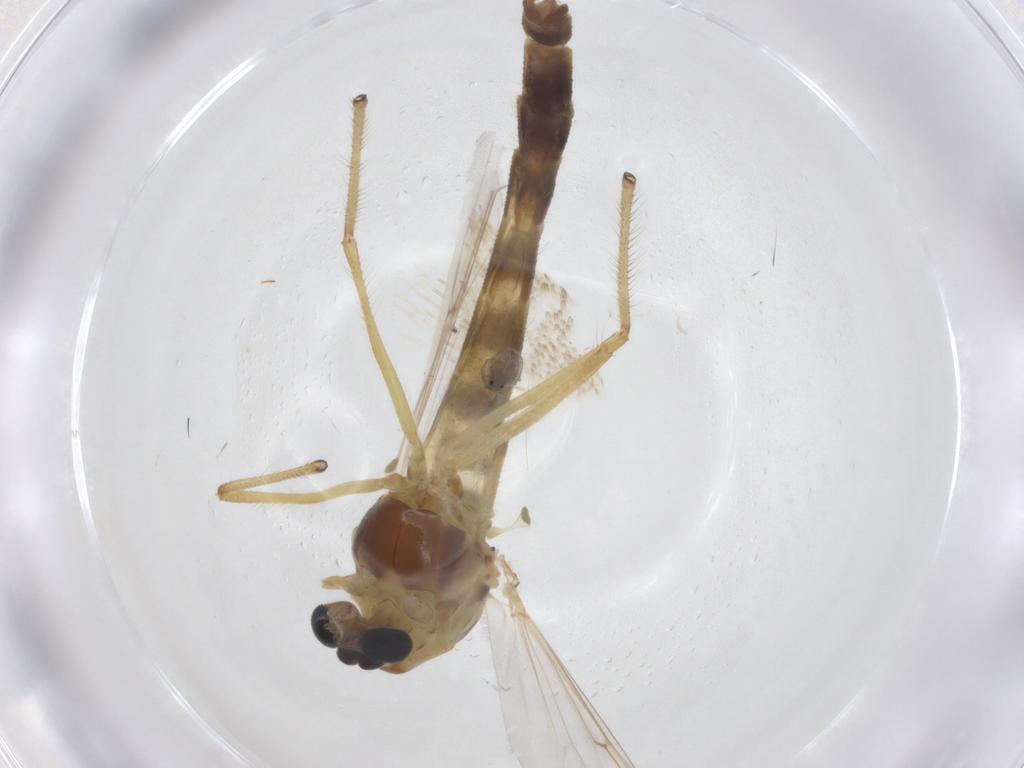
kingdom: Animalia
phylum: Arthropoda
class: Insecta
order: Diptera
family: Chironomidae
